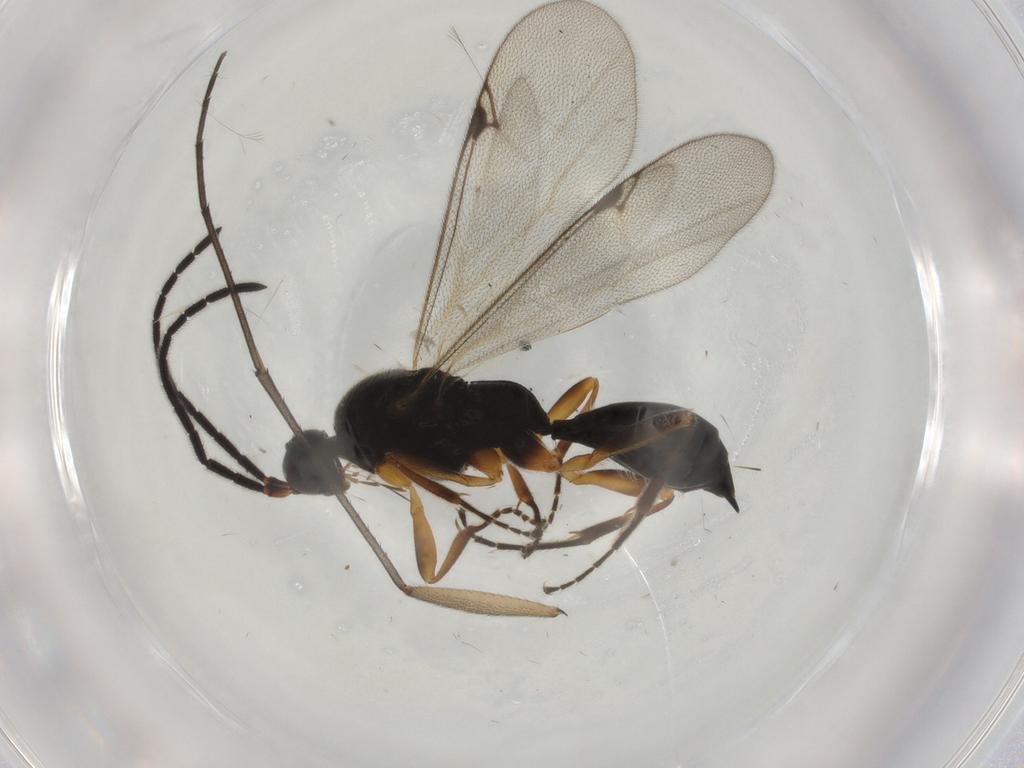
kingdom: Animalia
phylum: Arthropoda
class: Insecta
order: Hymenoptera
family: Proctotrupidae
